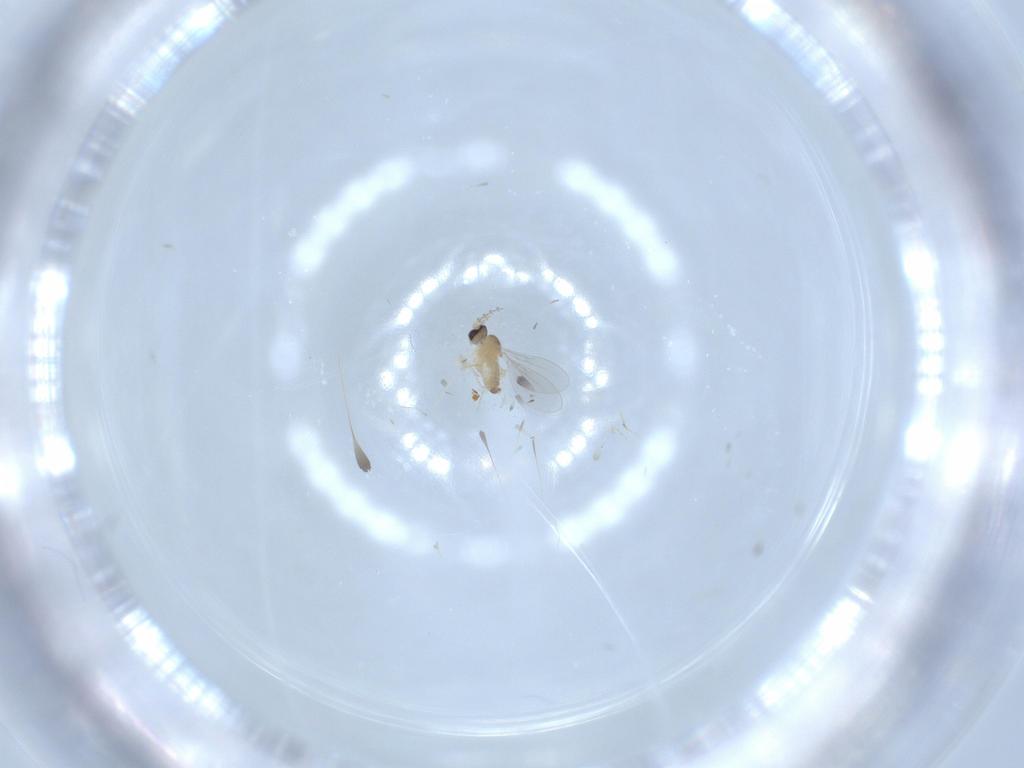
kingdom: Animalia
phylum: Arthropoda
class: Insecta
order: Diptera
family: Cecidomyiidae
